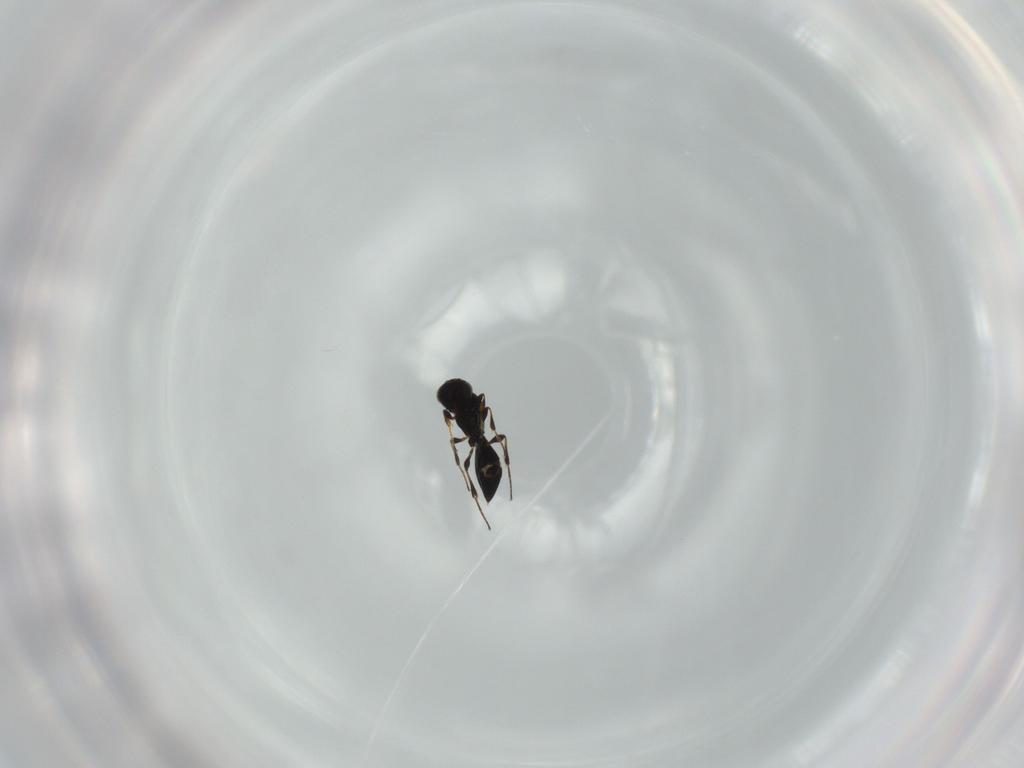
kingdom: Animalia
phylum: Arthropoda
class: Insecta
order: Hymenoptera
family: Platygastridae
